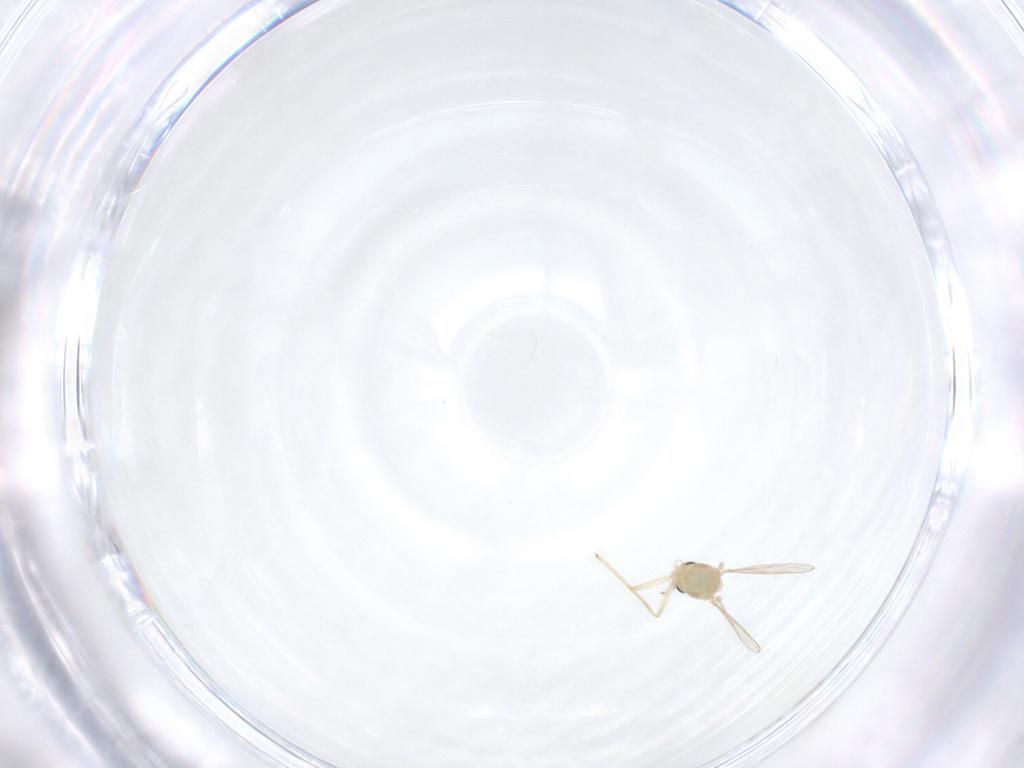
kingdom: Animalia
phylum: Arthropoda
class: Insecta
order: Diptera
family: Chironomidae
